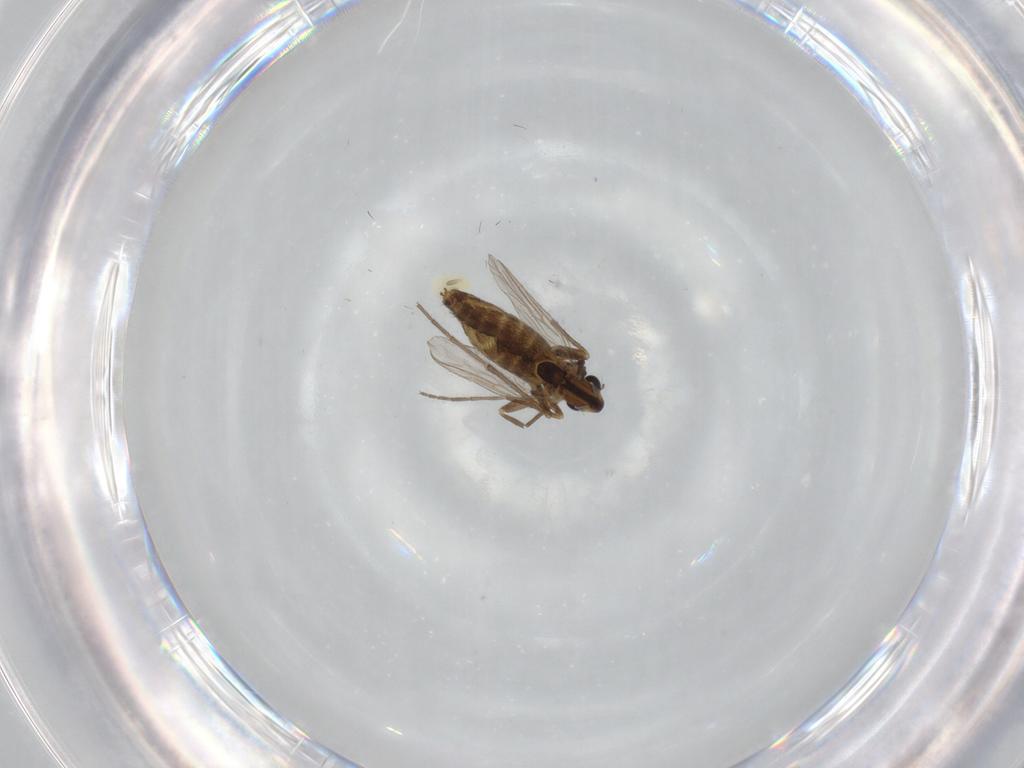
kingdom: Animalia
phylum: Arthropoda
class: Insecta
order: Diptera
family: Chironomidae
